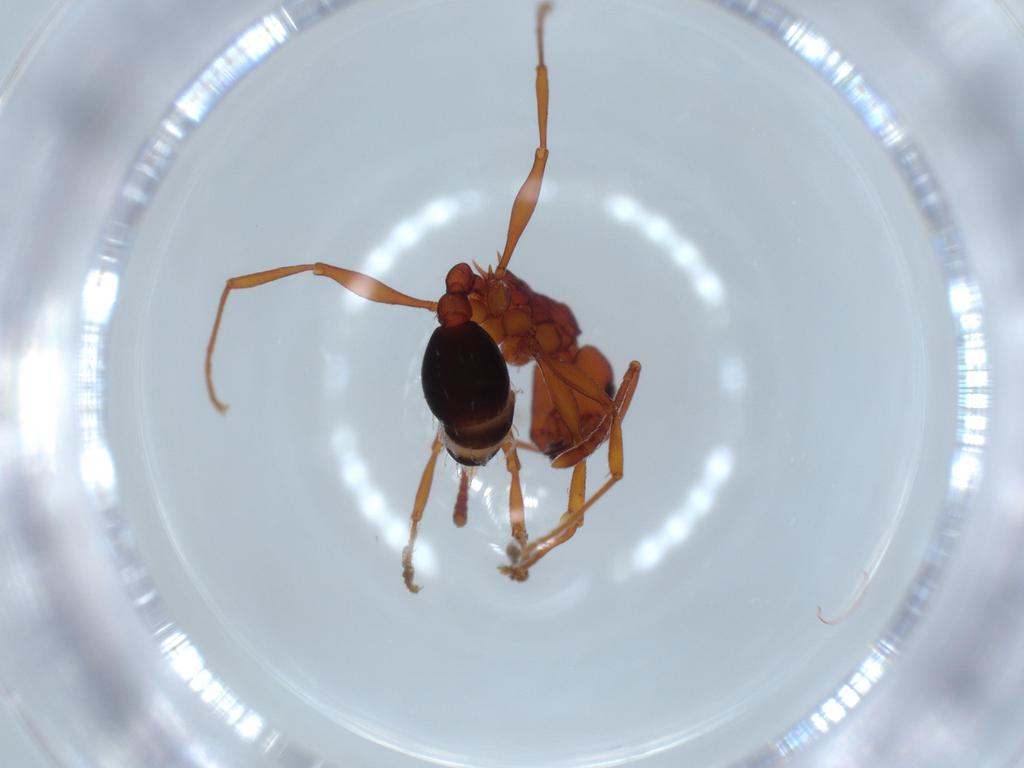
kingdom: Animalia
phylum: Arthropoda
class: Insecta
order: Hymenoptera
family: Formicidae
